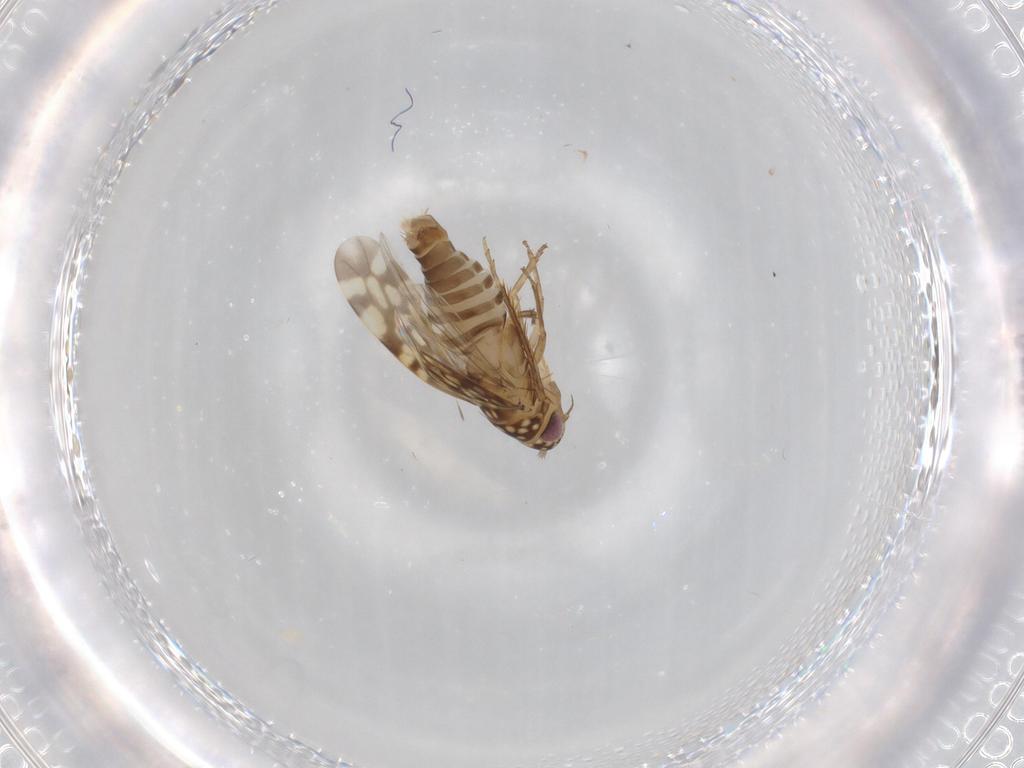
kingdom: Animalia
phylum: Arthropoda
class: Insecta
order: Hemiptera
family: Cicadellidae
